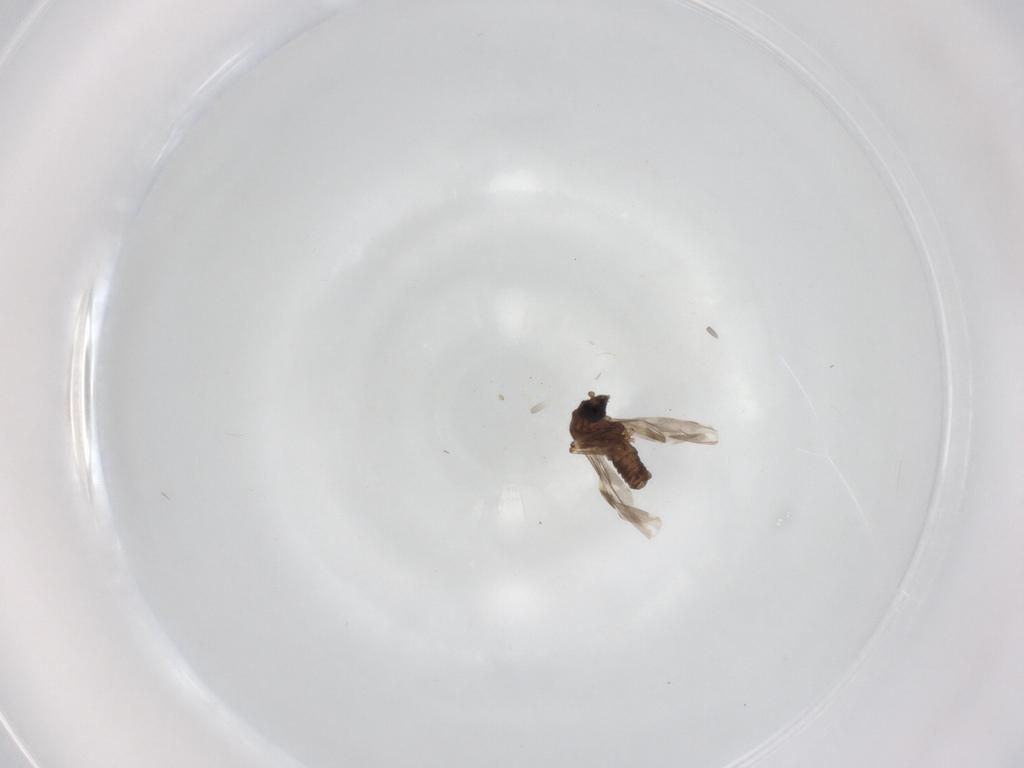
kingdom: Animalia
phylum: Arthropoda
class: Insecta
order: Diptera
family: Ceratopogonidae
